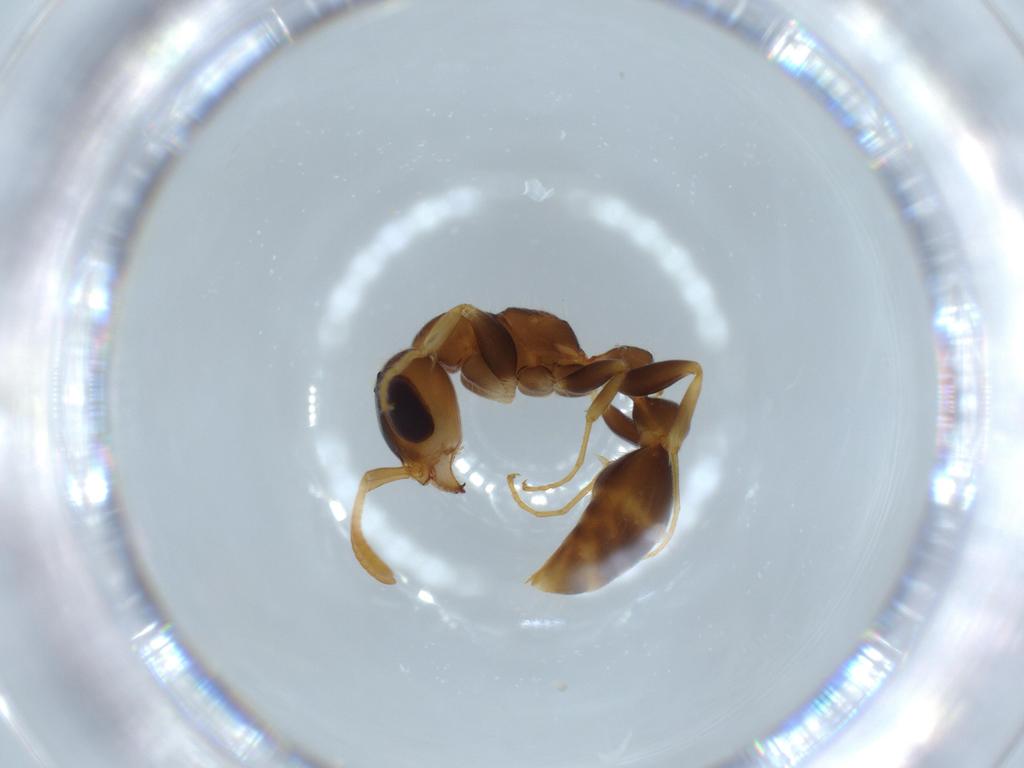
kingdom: Animalia
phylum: Arthropoda
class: Insecta
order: Hymenoptera
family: Formicidae
